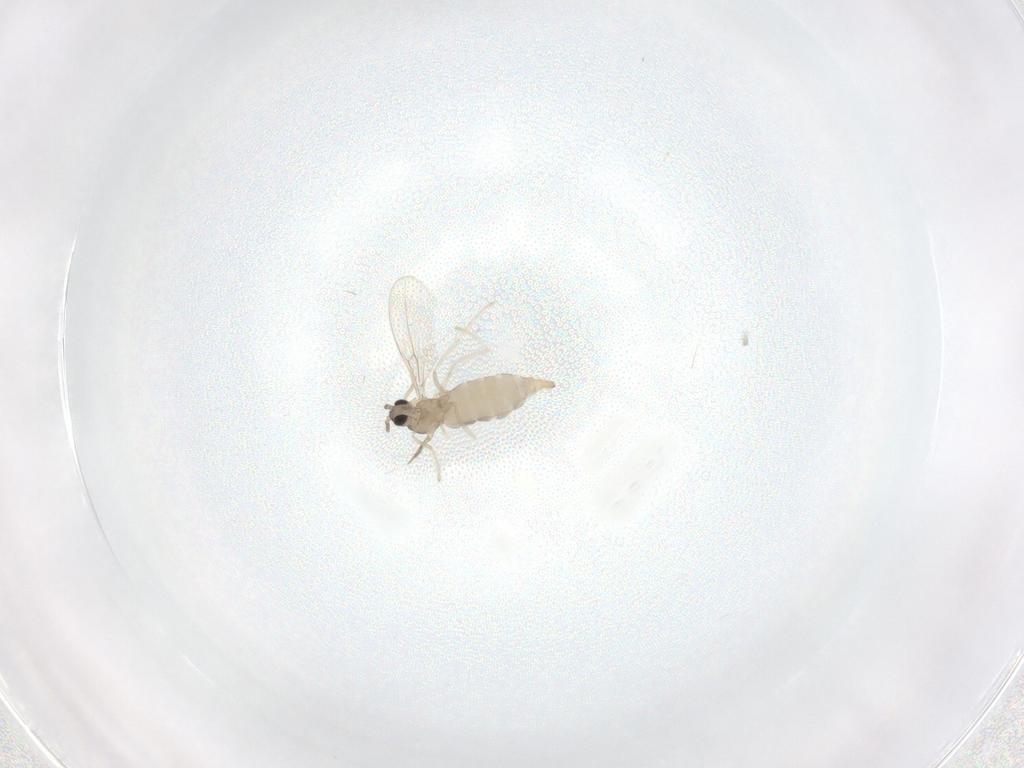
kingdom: Animalia
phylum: Arthropoda
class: Insecta
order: Diptera
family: Cecidomyiidae
